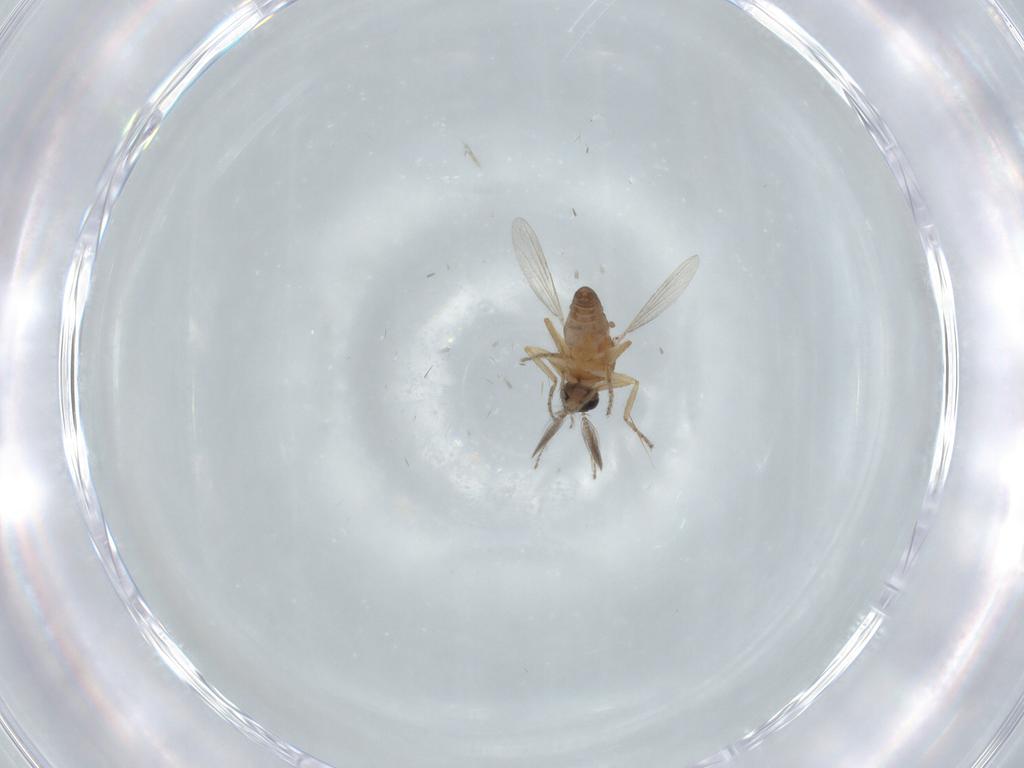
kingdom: Animalia
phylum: Arthropoda
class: Insecta
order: Diptera
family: Ceratopogonidae
